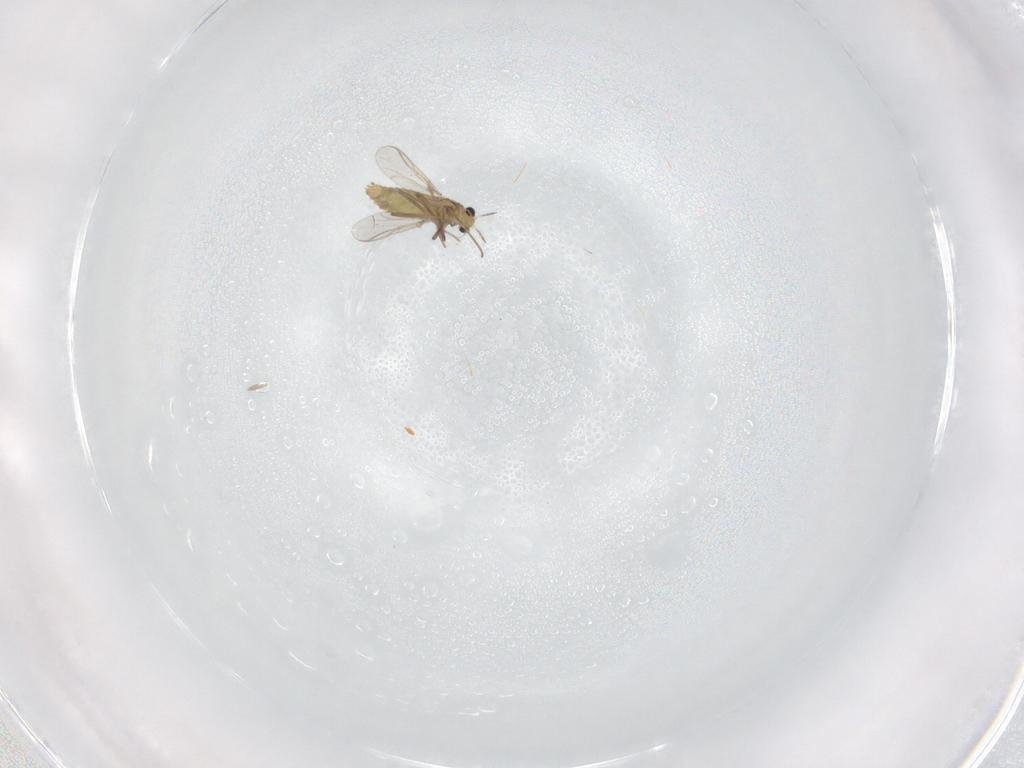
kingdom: Animalia
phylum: Arthropoda
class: Insecta
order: Diptera
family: Chironomidae
